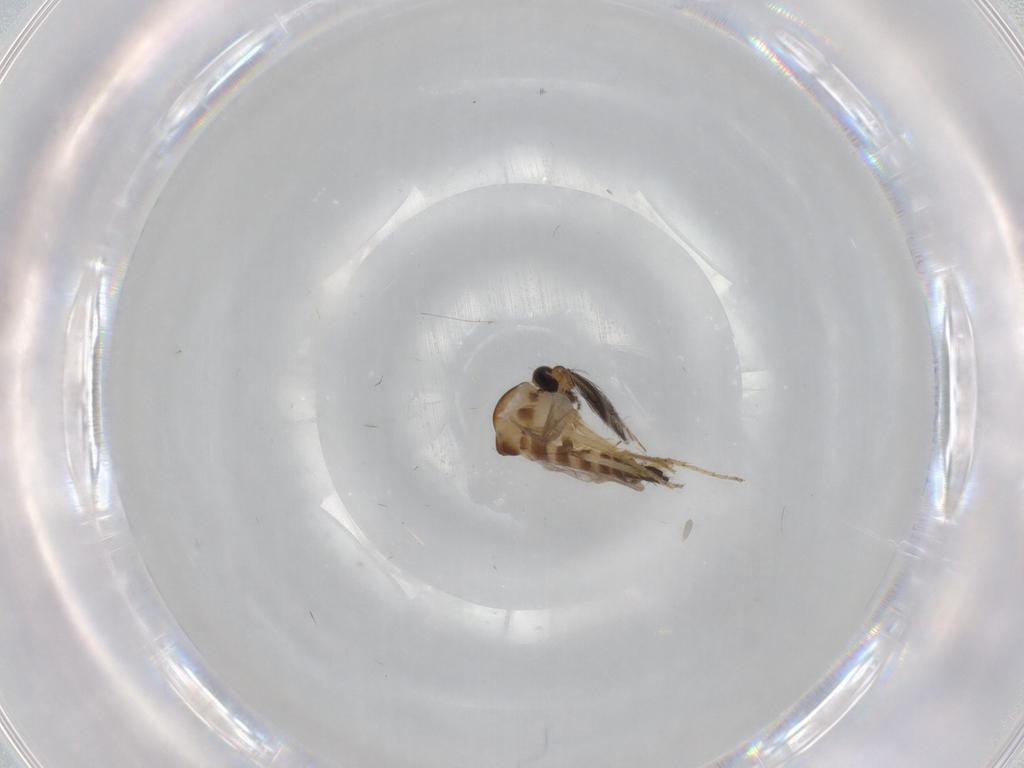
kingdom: Animalia
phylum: Arthropoda
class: Insecta
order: Diptera
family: Ceratopogonidae
